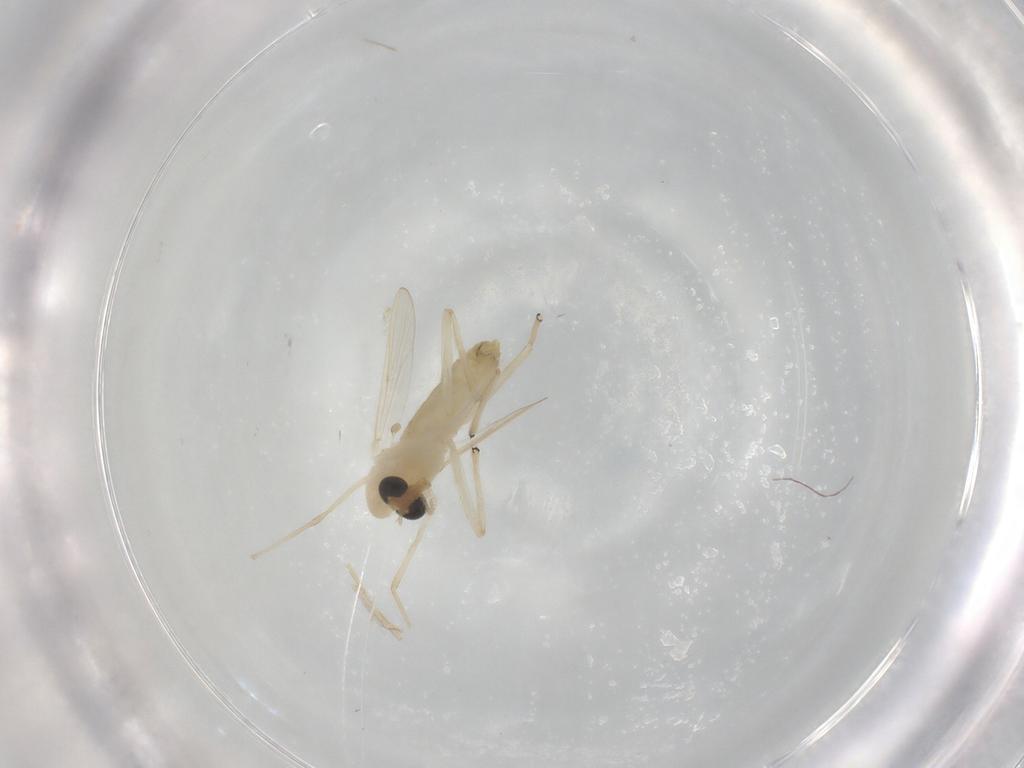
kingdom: Animalia
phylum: Arthropoda
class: Insecta
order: Diptera
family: Chironomidae
